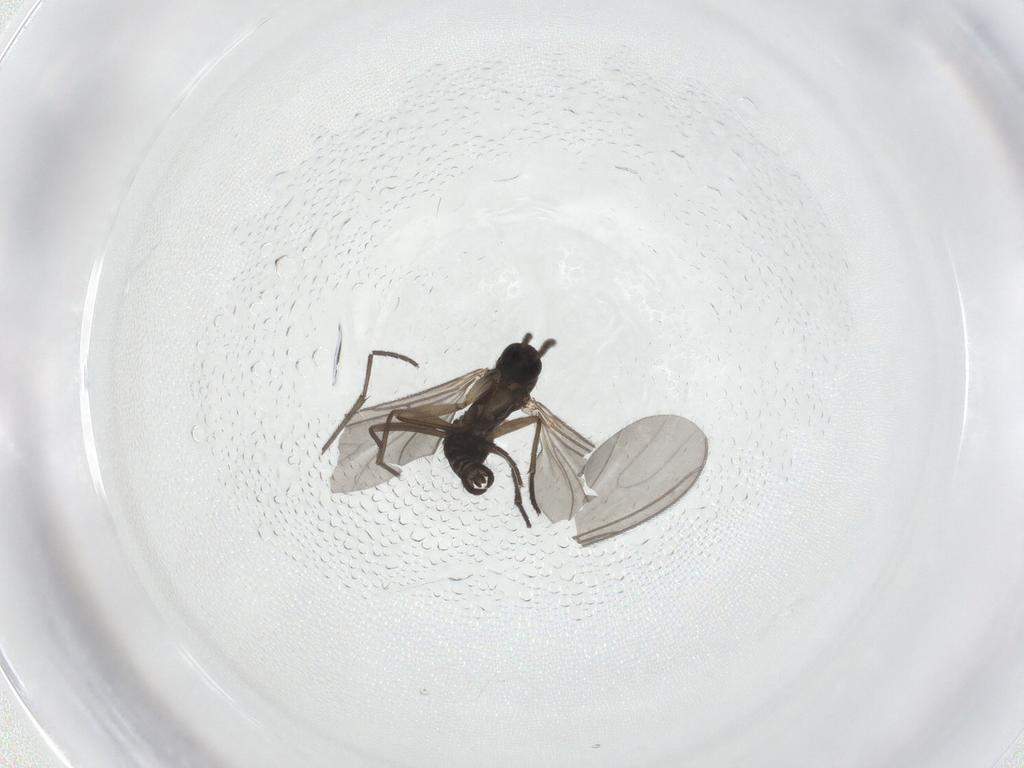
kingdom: Animalia
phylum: Arthropoda
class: Insecta
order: Diptera
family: Sciaridae
